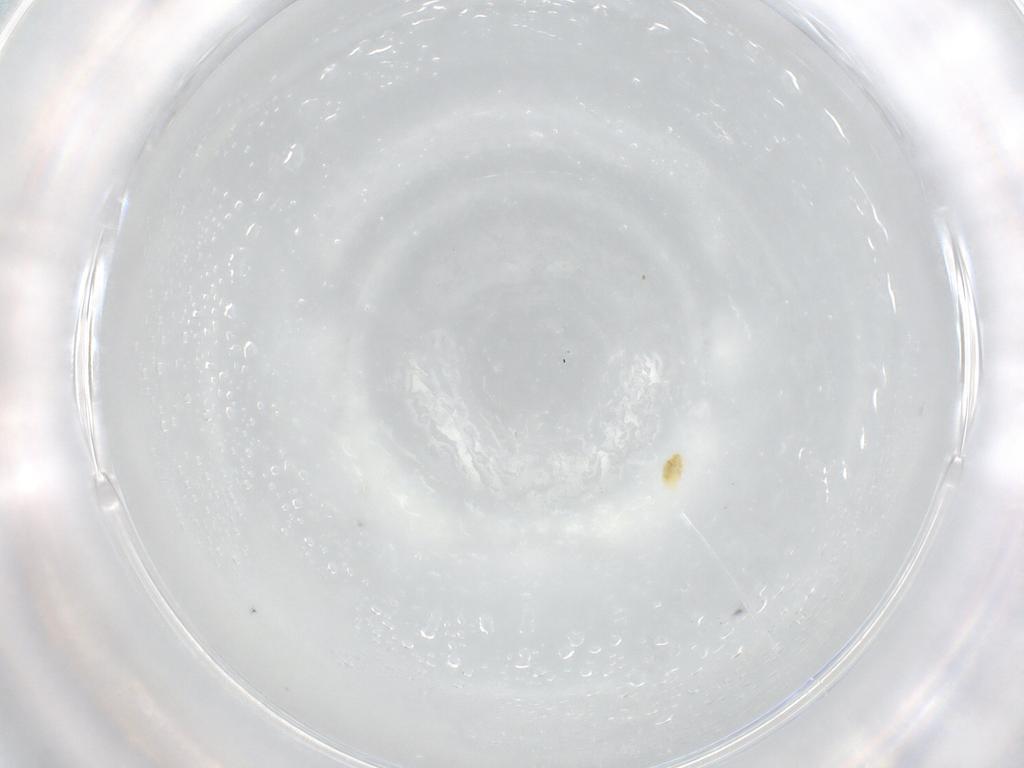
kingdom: Animalia
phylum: Arthropoda
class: Arachnida
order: Trombidiformes
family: Tetranychidae
